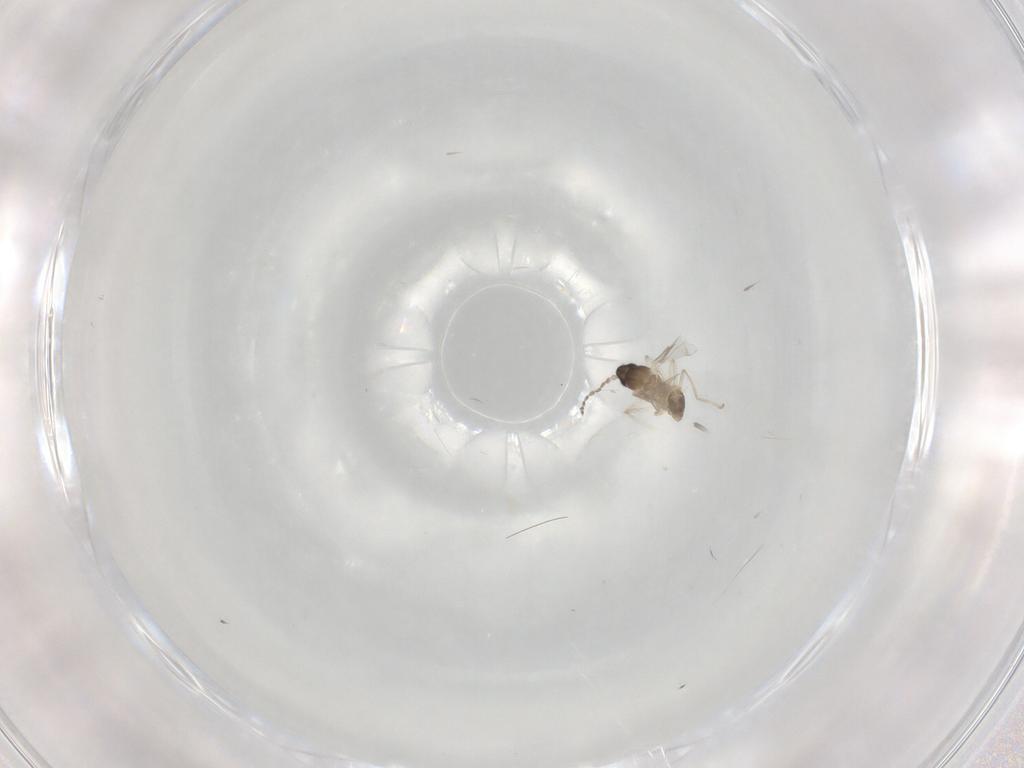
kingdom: Animalia
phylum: Arthropoda
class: Insecta
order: Diptera
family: Cecidomyiidae
